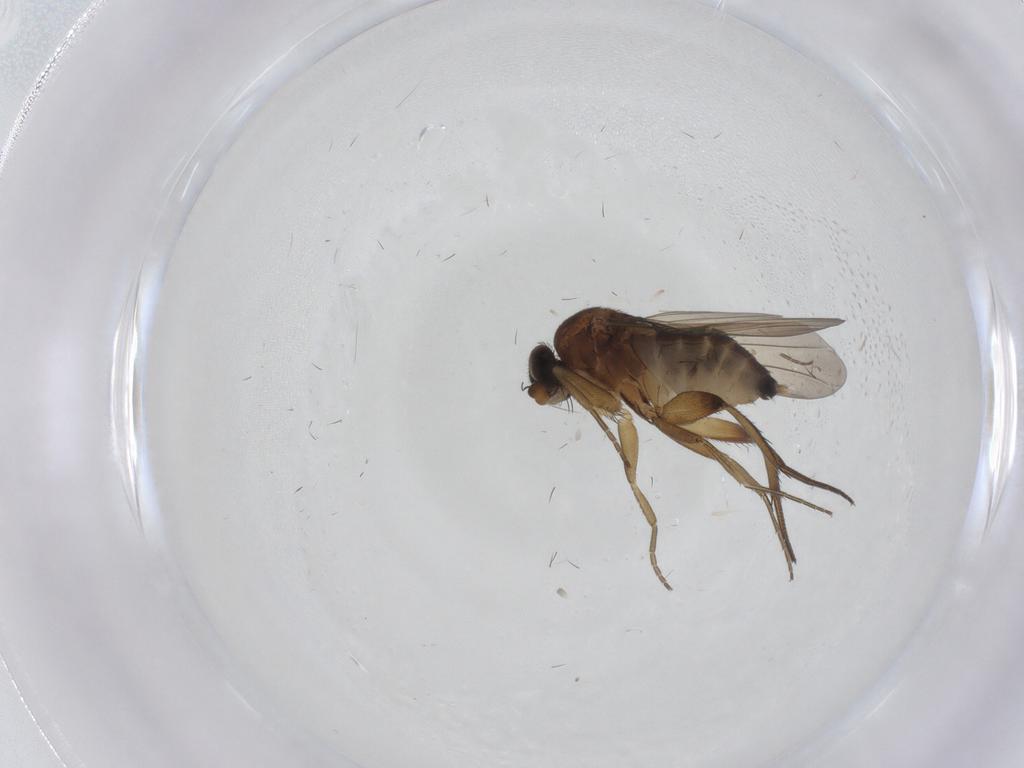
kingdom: Animalia
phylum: Arthropoda
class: Insecta
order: Diptera
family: Phoridae
